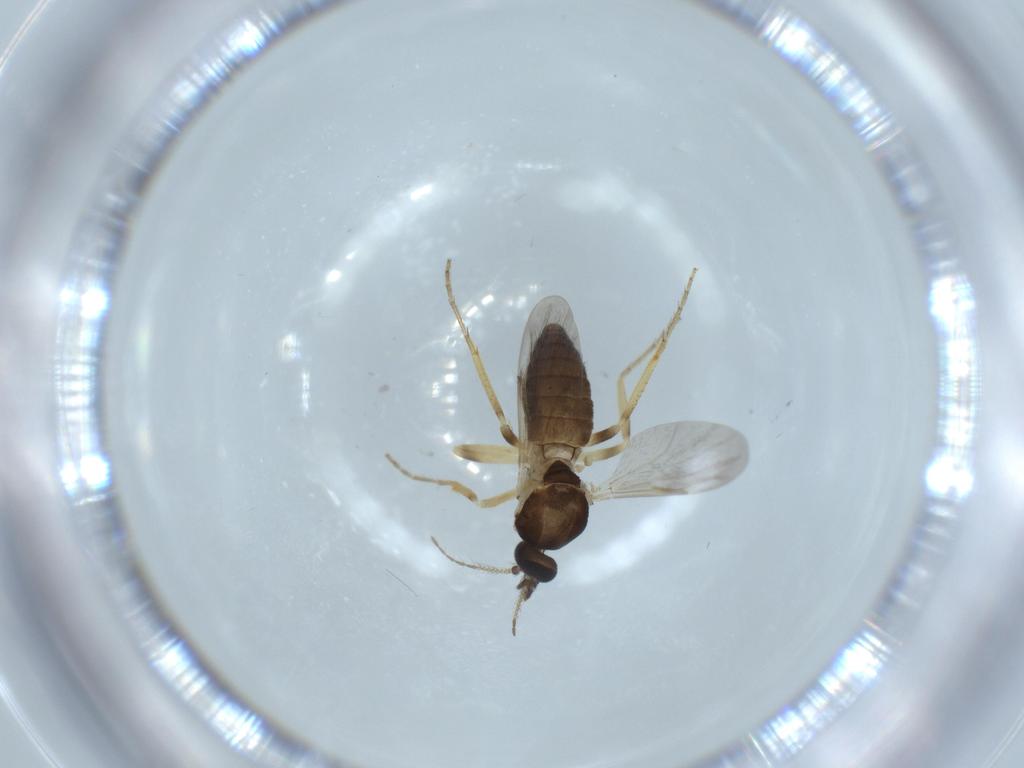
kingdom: Animalia
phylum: Arthropoda
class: Insecta
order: Diptera
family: Ceratopogonidae
